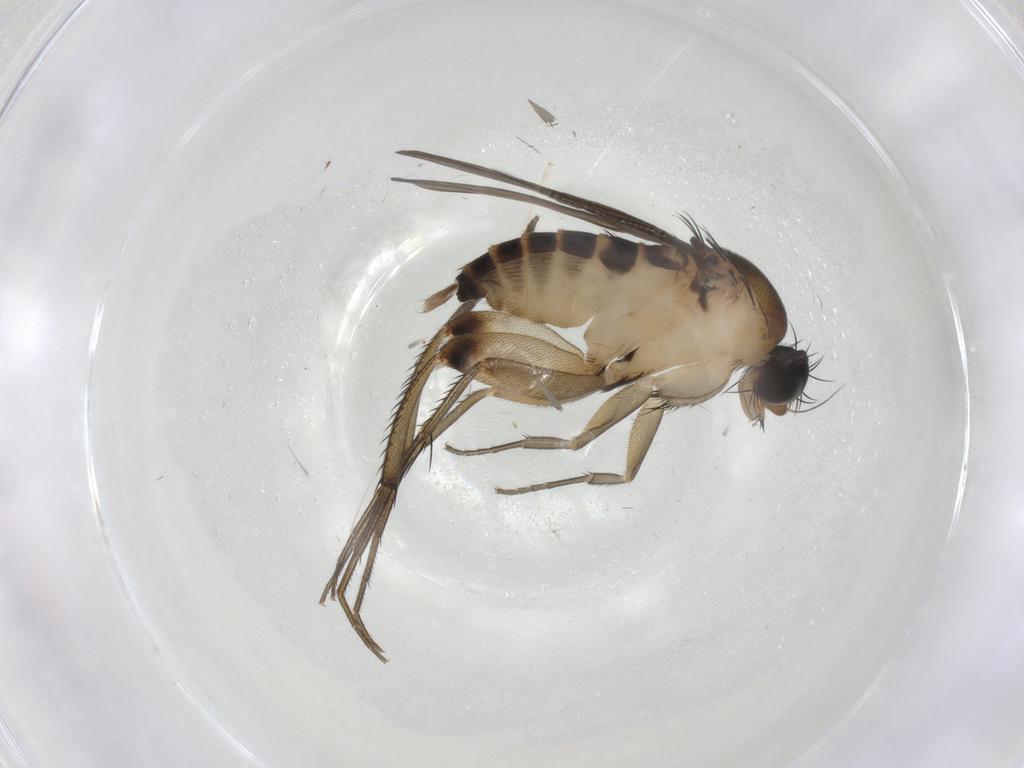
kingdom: Animalia
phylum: Arthropoda
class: Insecta
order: Diptera
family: Psychodidae
